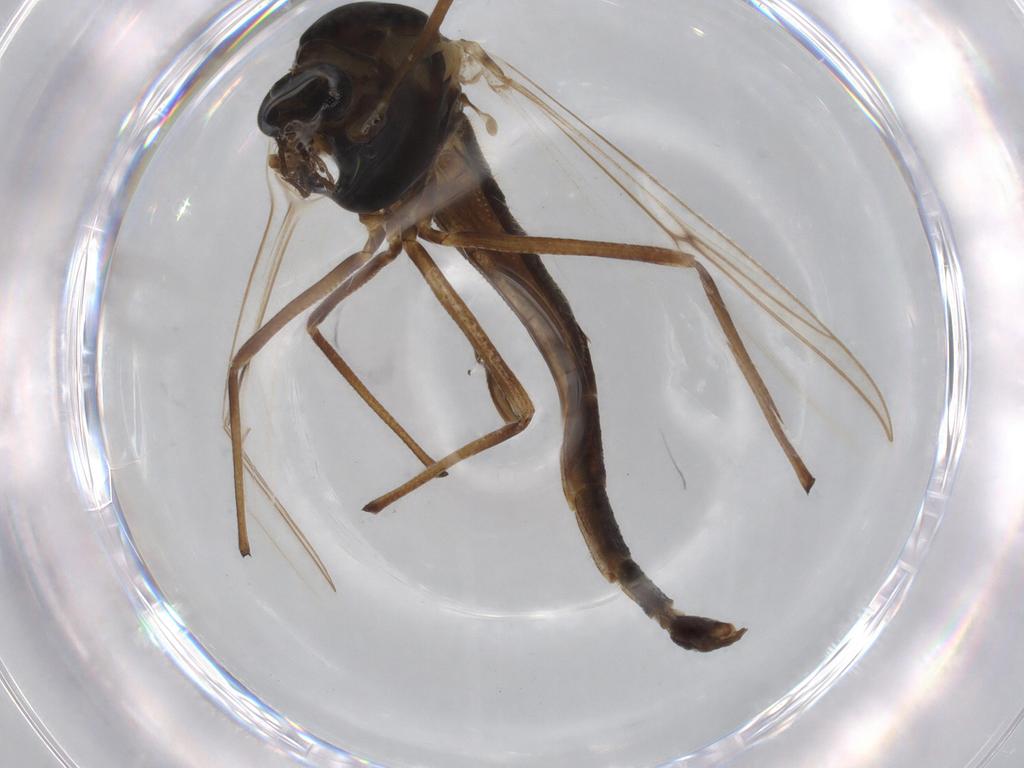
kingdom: Animalia
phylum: Arthropoda
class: Insecta
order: Diptera
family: Sphaeroceridae
